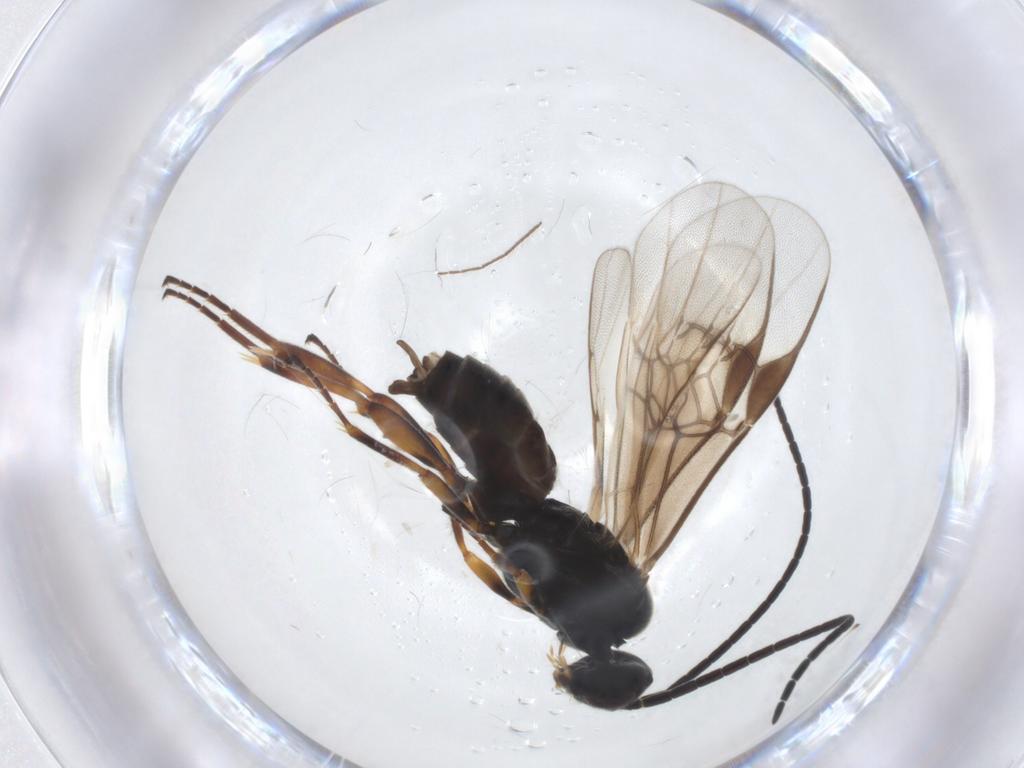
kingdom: Animalia
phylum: Arthropoda
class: Insecta
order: Hymenoptera
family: Braconidae
